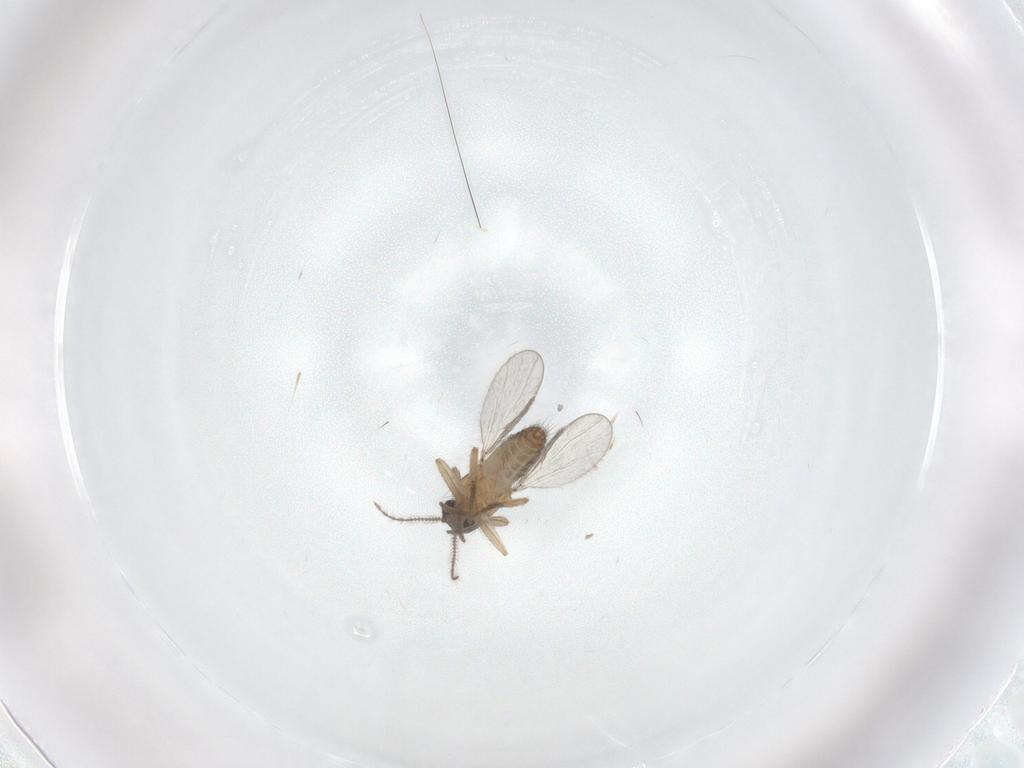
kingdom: Animalia
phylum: Arthropoda
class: Insecta
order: Diptera
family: Ceratopogonidae
